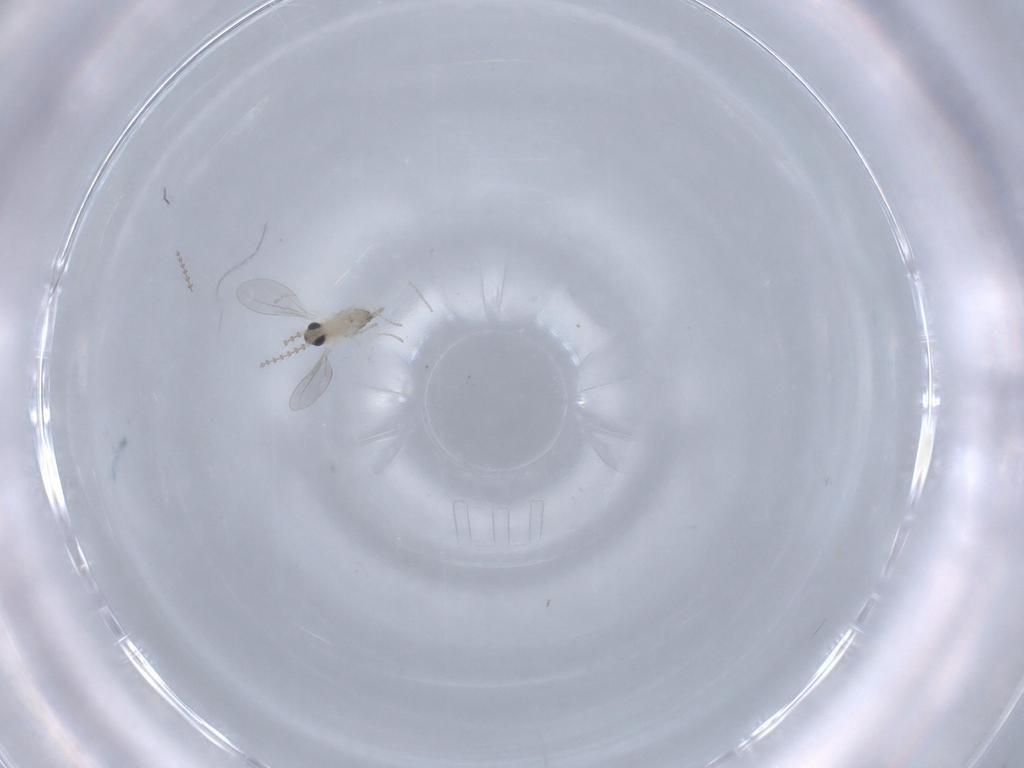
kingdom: Animalia
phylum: Arthropoda
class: Insecta
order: Diptera
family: Cecidomyiidae
